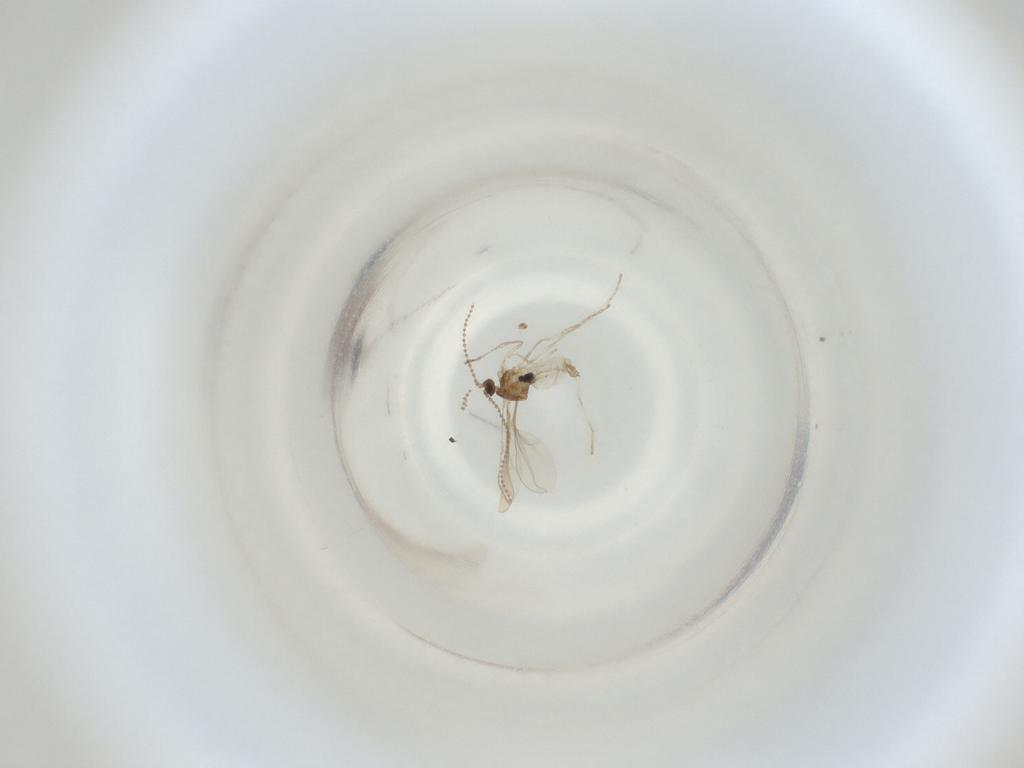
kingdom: Animalia
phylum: Arthropoda
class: Insecta
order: Diptera
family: Cecidomyiidae
